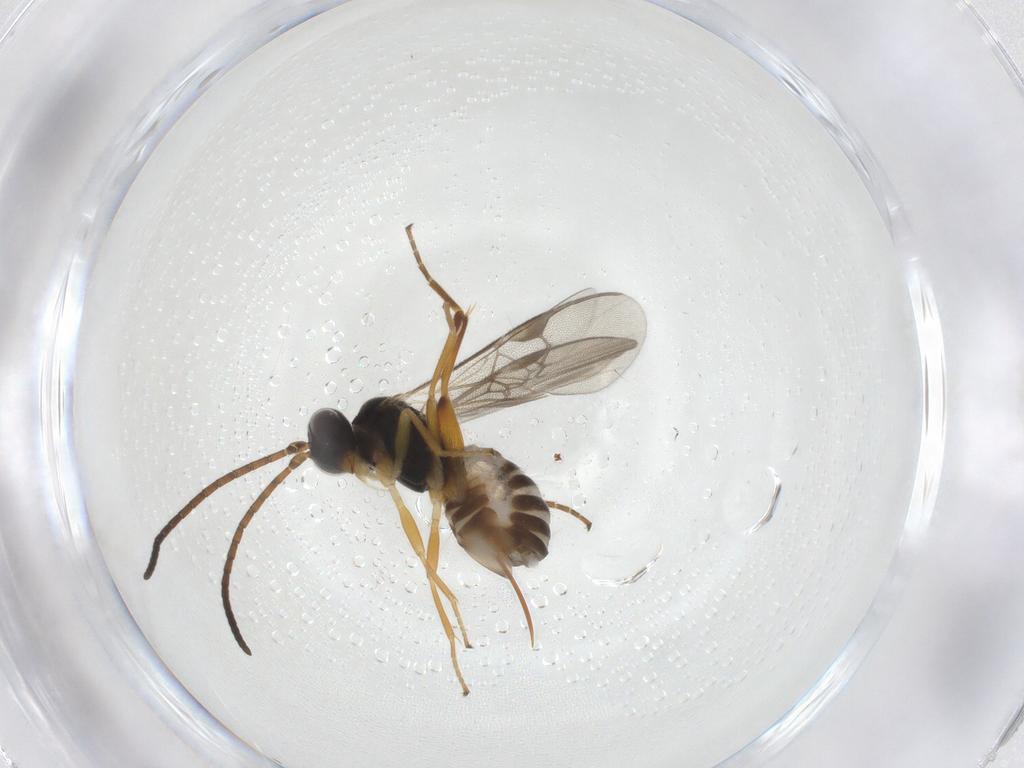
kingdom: Animalia
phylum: Arthropoda
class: Insecta
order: Hymenoptera
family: Braconidae
